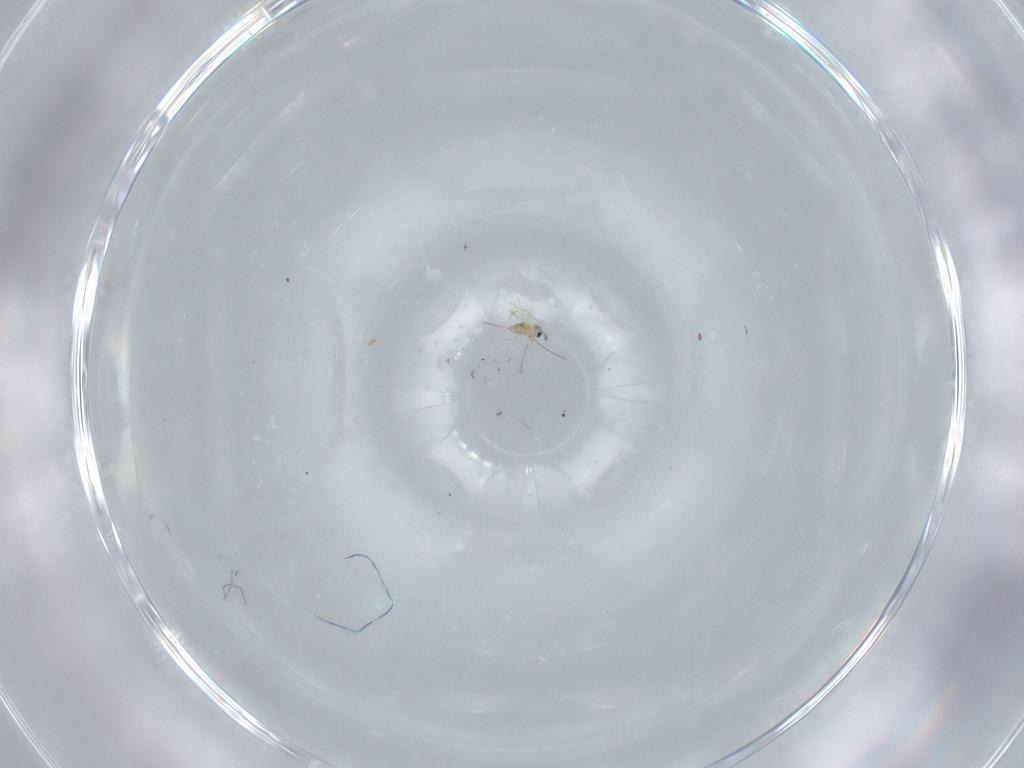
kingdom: Animalia
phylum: Arthropoda
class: Insecta
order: Hymenoptera
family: Mymaridae
